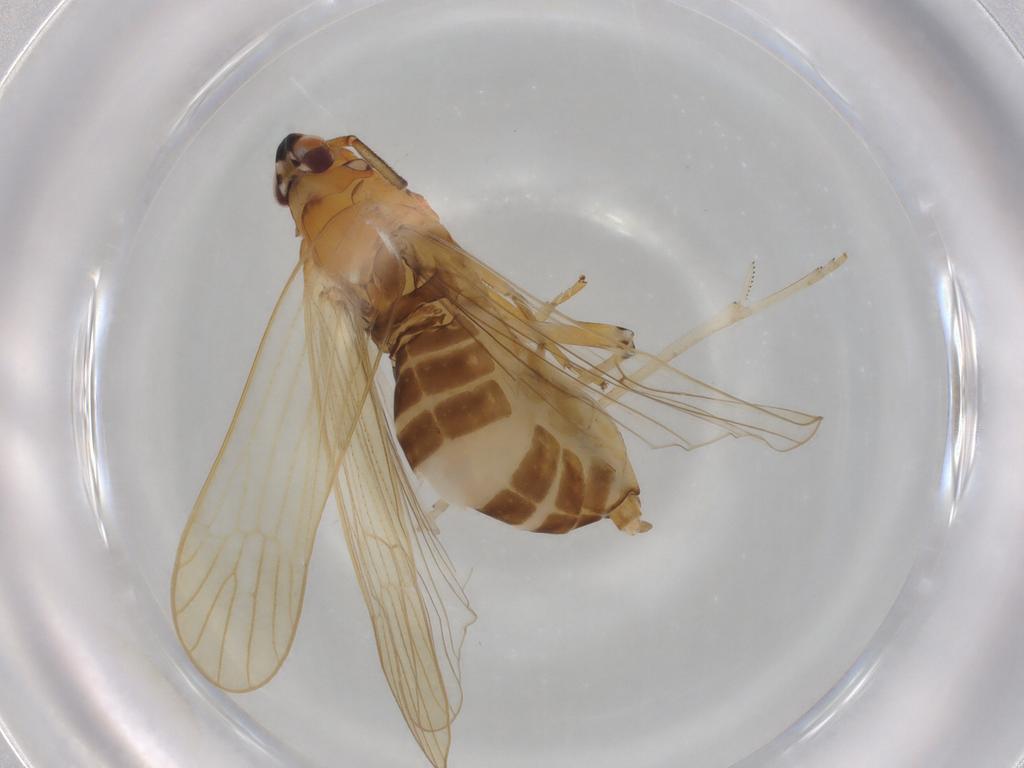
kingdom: Animalia
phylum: Arthropoda
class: Insecta
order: Hemiptera
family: Delphacidae
